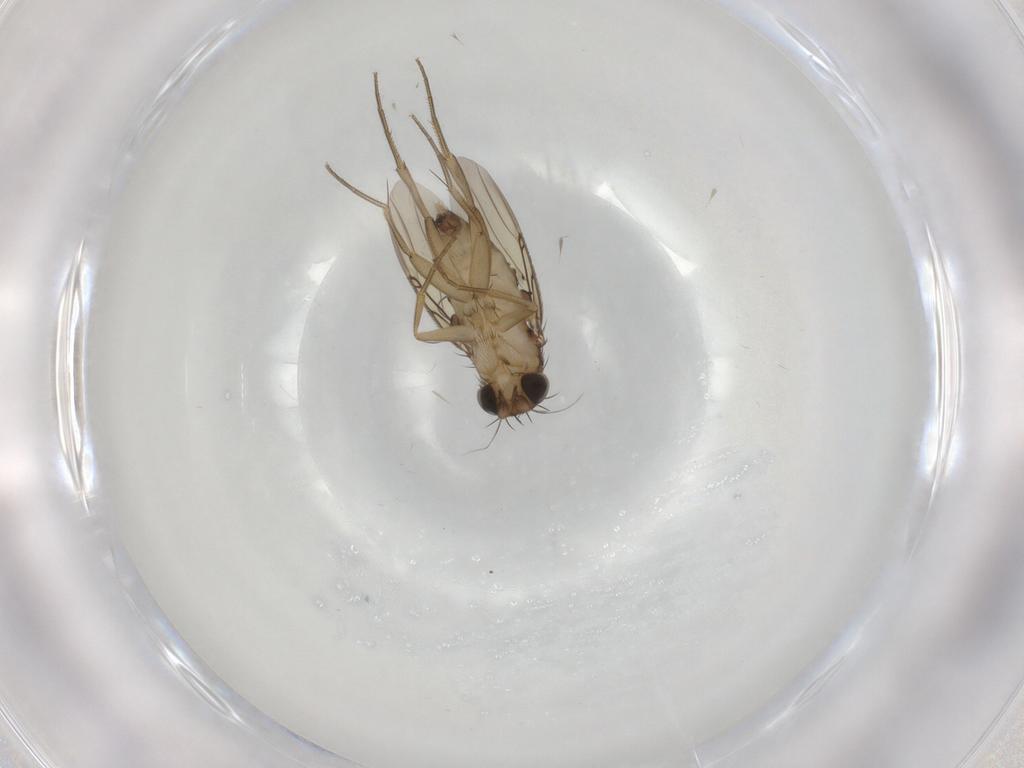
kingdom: Animalia
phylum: Arthropoda
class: Insecta
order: Diptera
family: Phoridae
